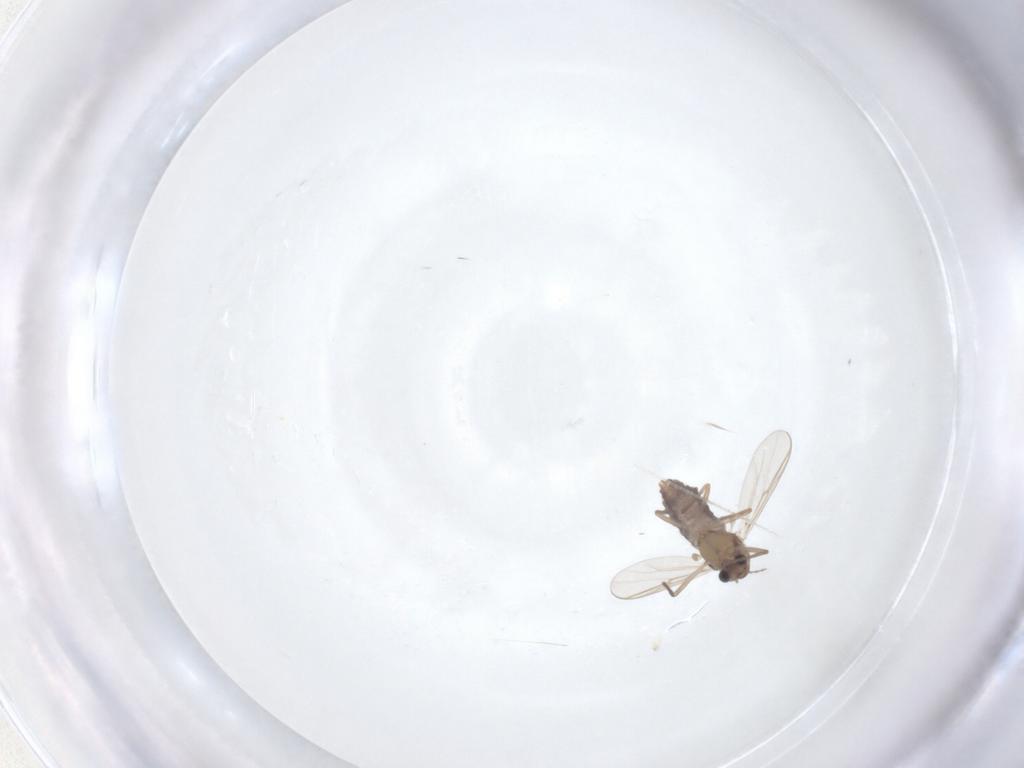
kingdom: Animalia
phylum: Arthropoda
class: Insecta
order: Diptera
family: Chironomidae
